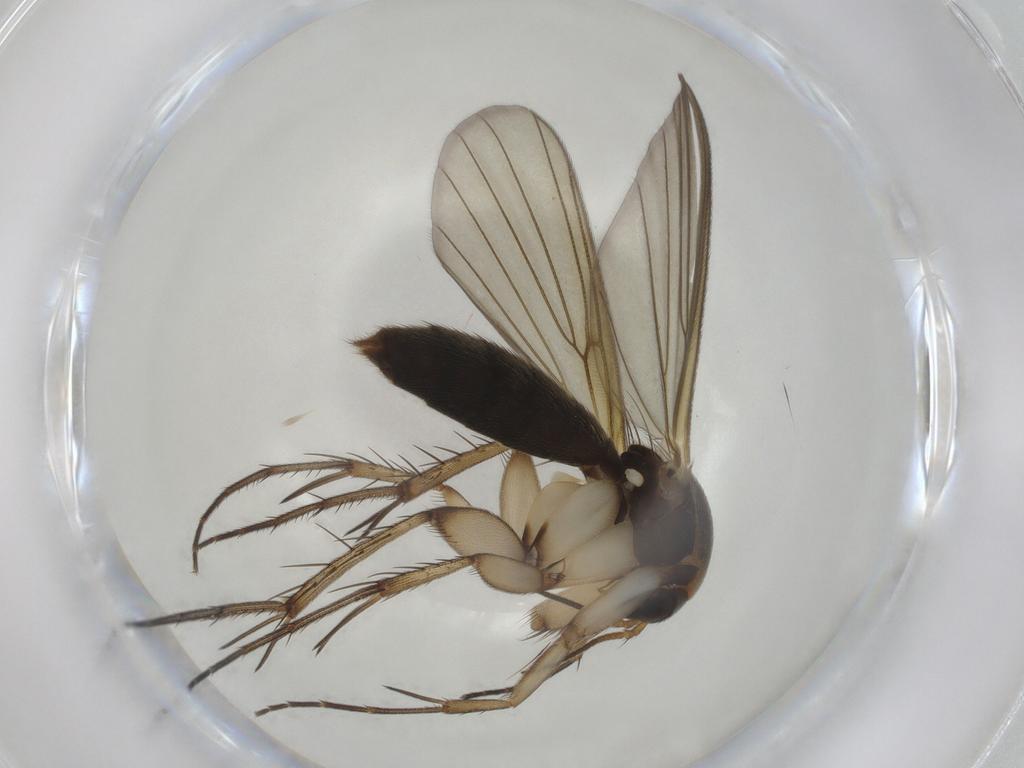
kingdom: Animalia
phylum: Arthropoda
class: Insecta
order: Diptera
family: Mycetophilidae
